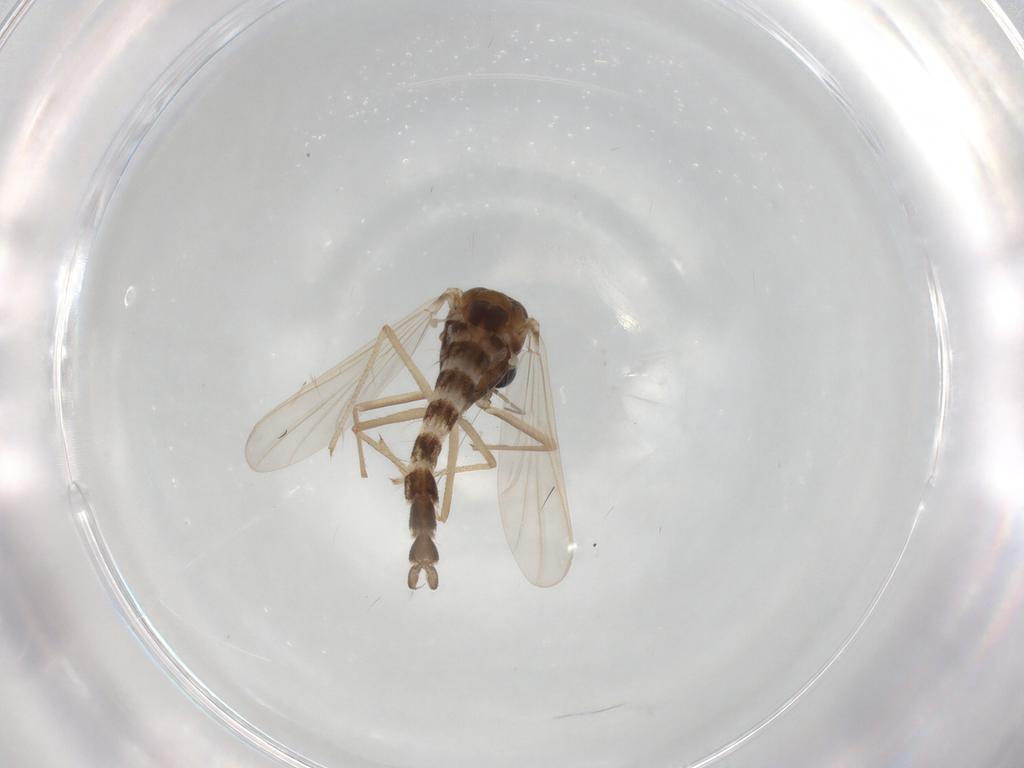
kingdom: Animalia
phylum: Arthropoda
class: Insecta
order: Diptera
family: Chironomidae
